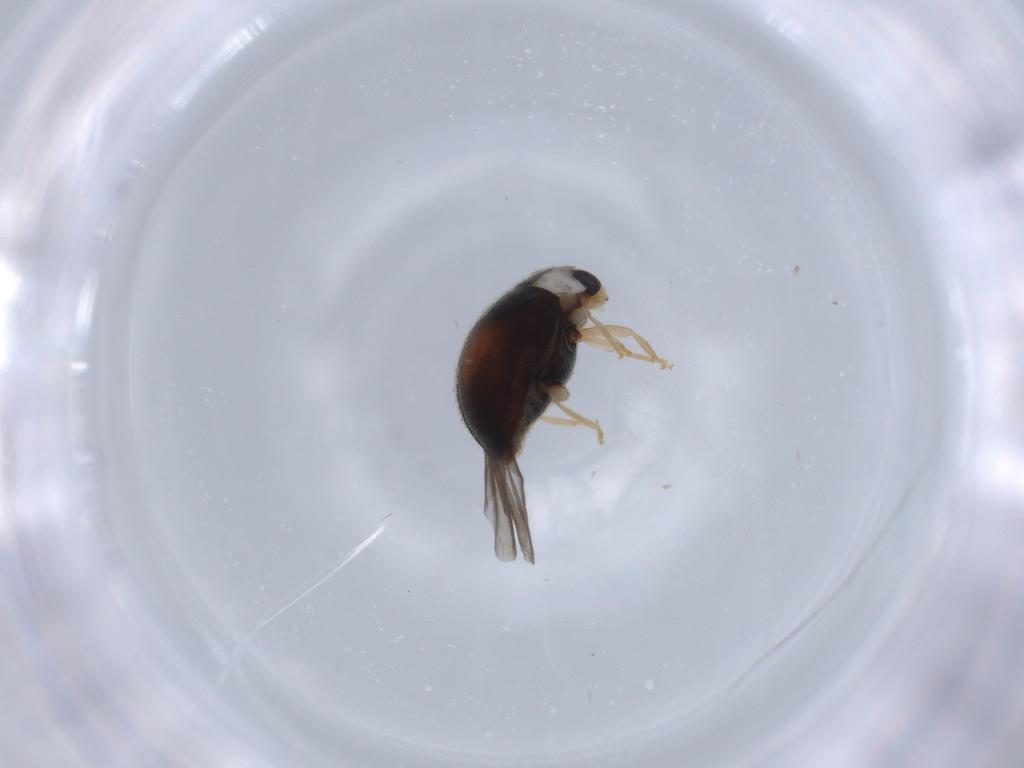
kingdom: Animalia
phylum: Arthropoda
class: Insecta
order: Coleoptera
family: Coccinellidae
